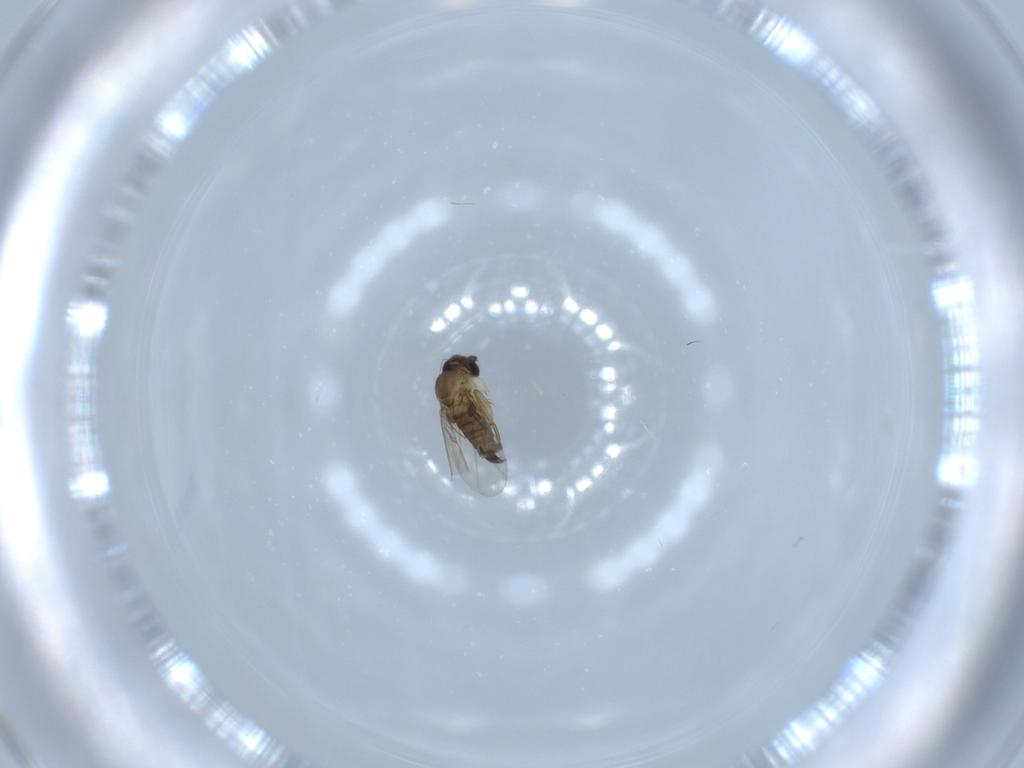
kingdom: Animalia
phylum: Arthropoda
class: Insecta
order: Diptera
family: Phoridae
